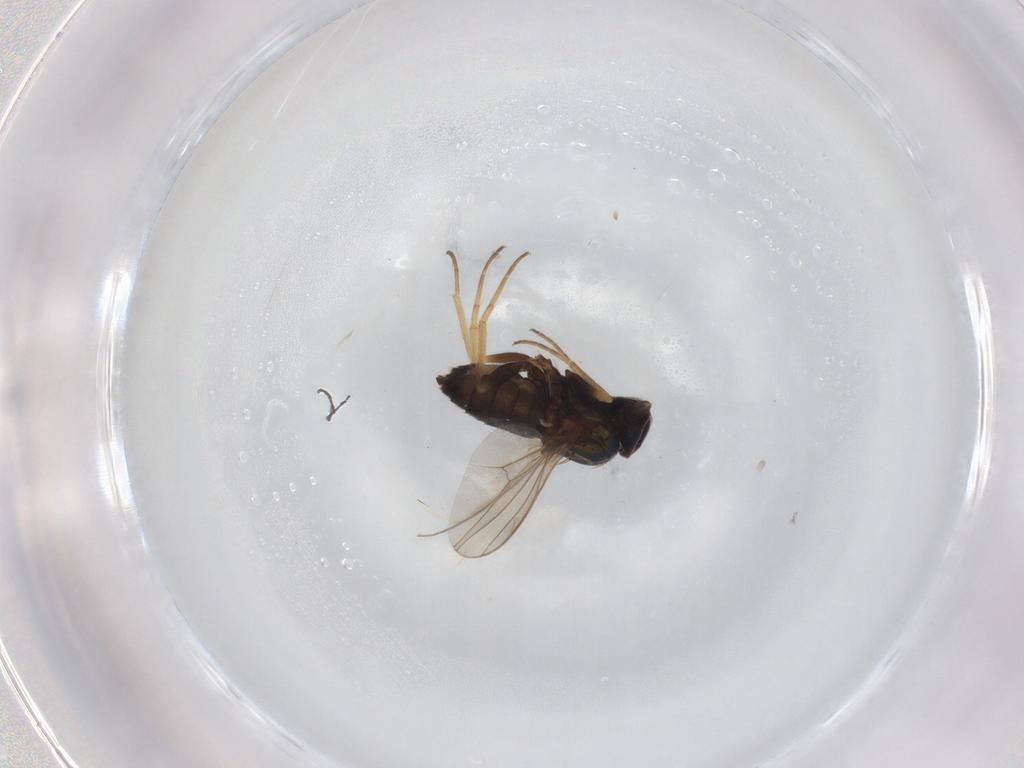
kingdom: Animalia
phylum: Arthropoda
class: Insecta
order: Diptera
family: Dolichopodidae
